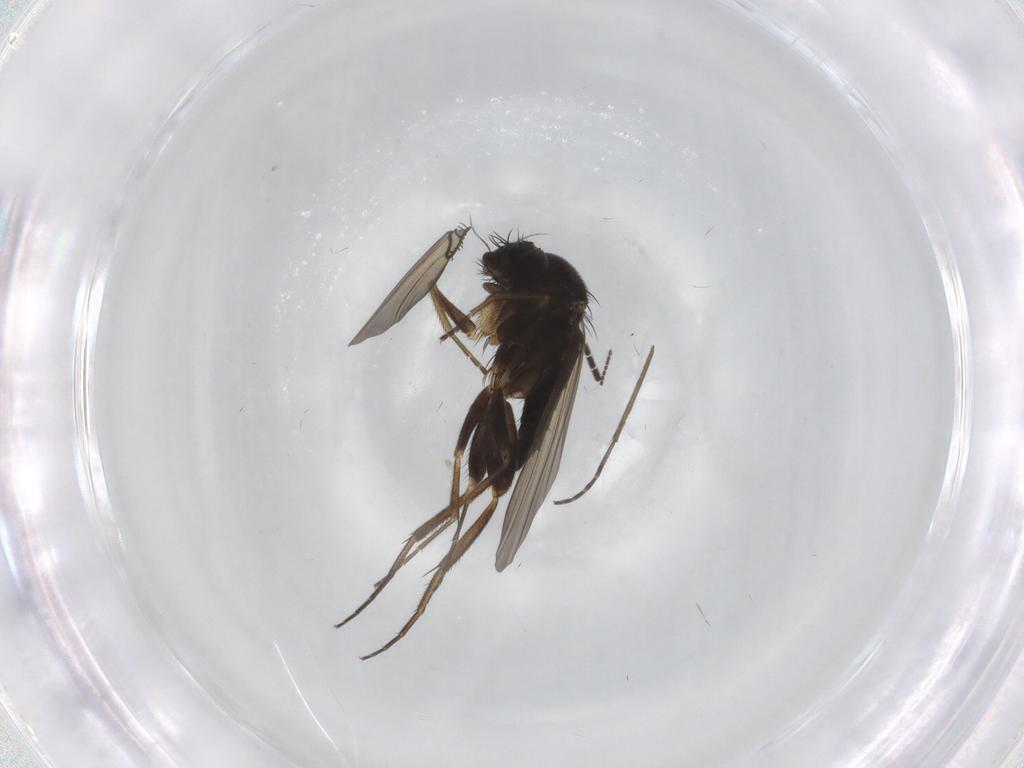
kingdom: Animalia
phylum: Arthropoda
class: Insecta
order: Diptera
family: Phoridae
